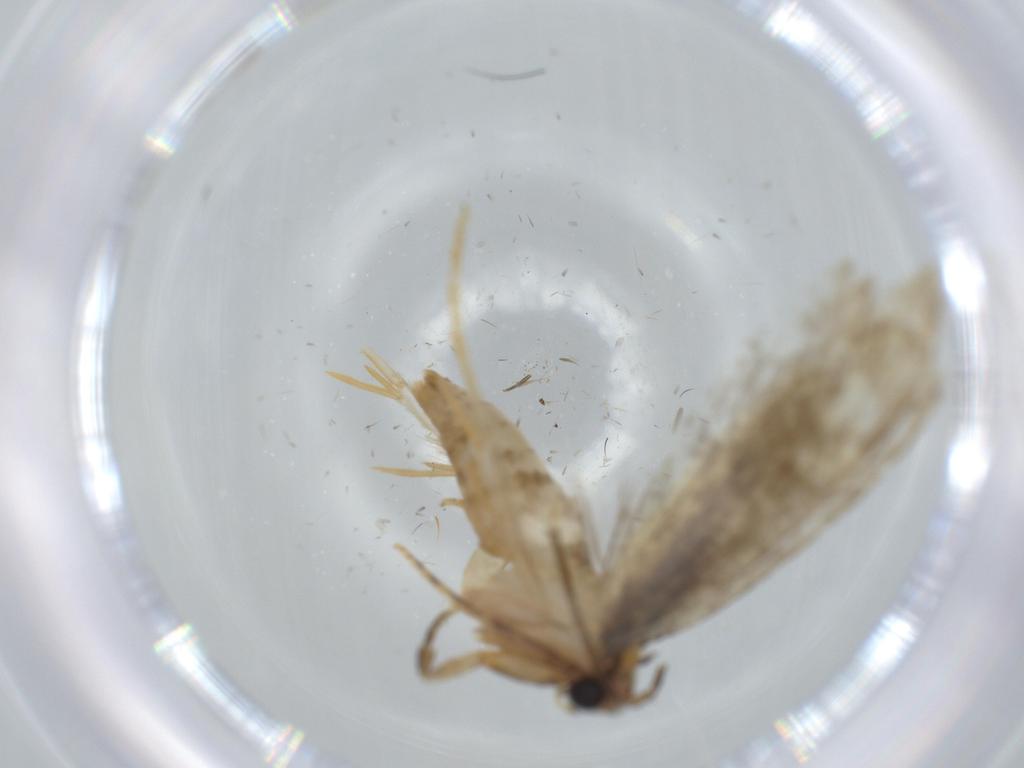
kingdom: Animalia
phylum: Arthropoda
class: Insecta
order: Lepidoptera
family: Tineidae
